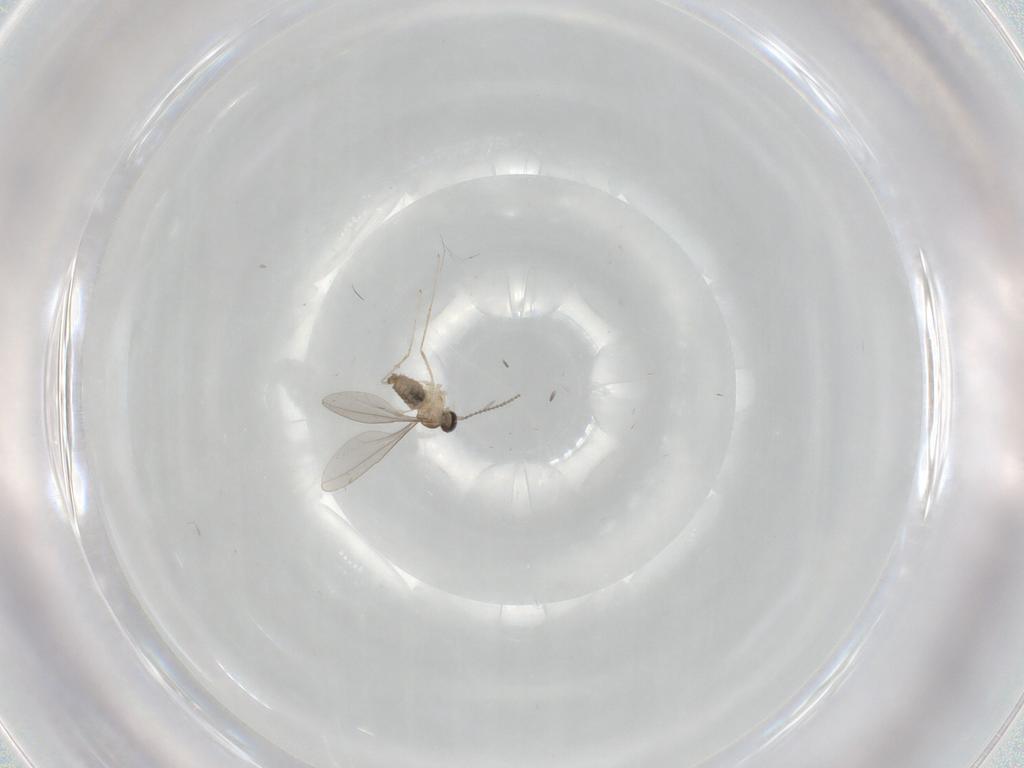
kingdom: Animalia
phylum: Arthropoda
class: Insecta
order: Diptera
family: Cecidomyiidae
